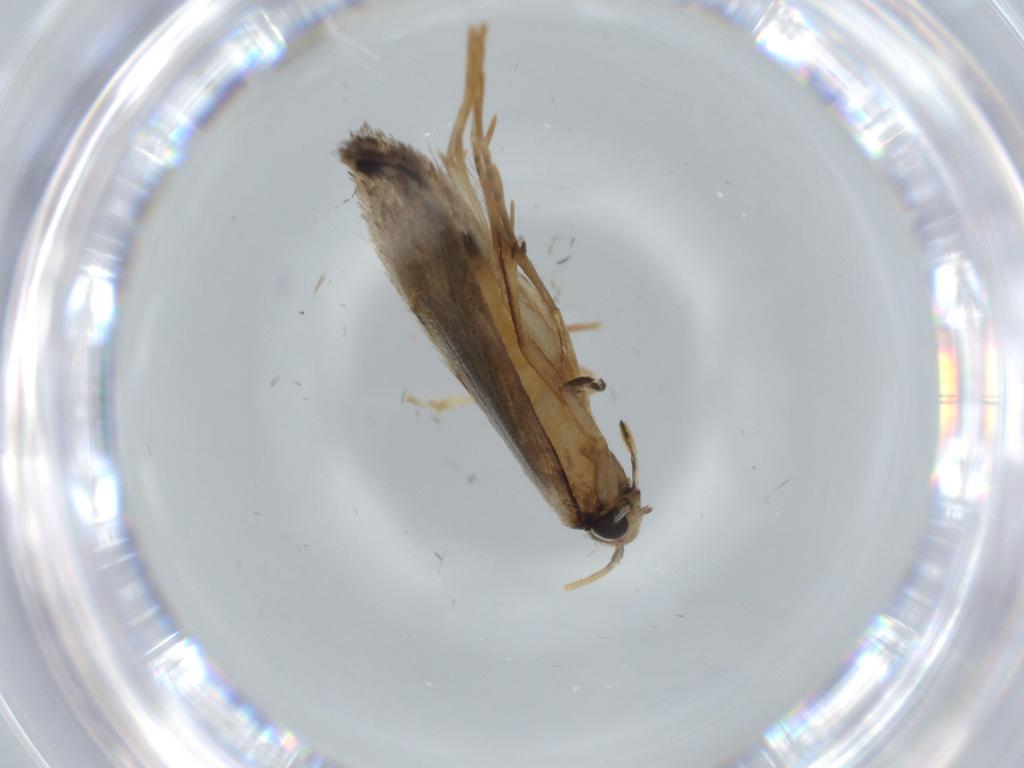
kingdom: Animalia
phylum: Arthropoda
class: Insecta
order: Lepidoptera
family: Tineidae
